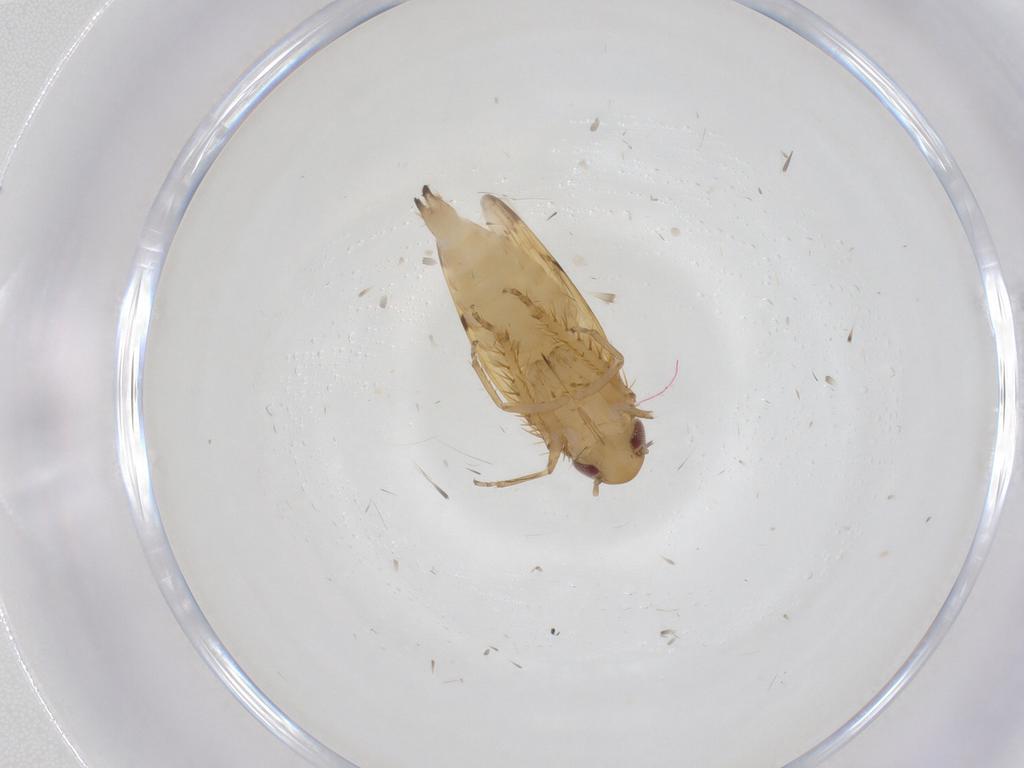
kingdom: Animalia
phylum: Arthropoda
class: Insecta
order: Hemiptera
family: Cicadellidae
